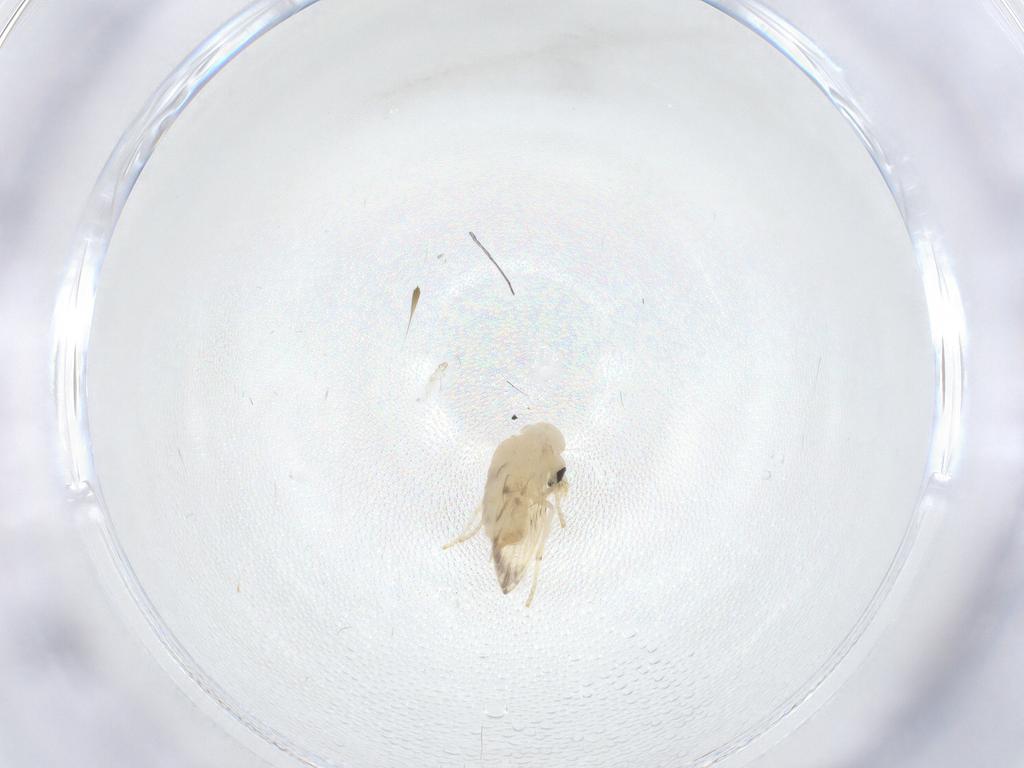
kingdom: Animalia
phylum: Arthropoda
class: Insecta
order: Diptera
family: Psychodidae
